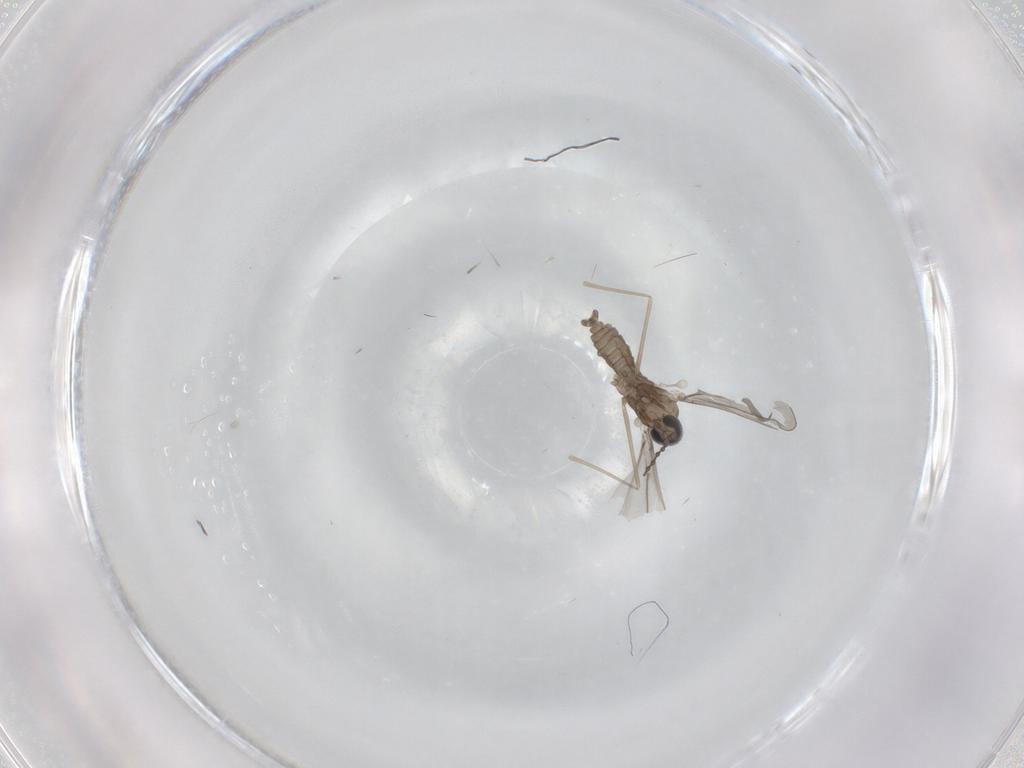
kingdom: Animalia
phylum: Arthropoda
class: Insecta
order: Diptera
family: Cecidomyiidae
